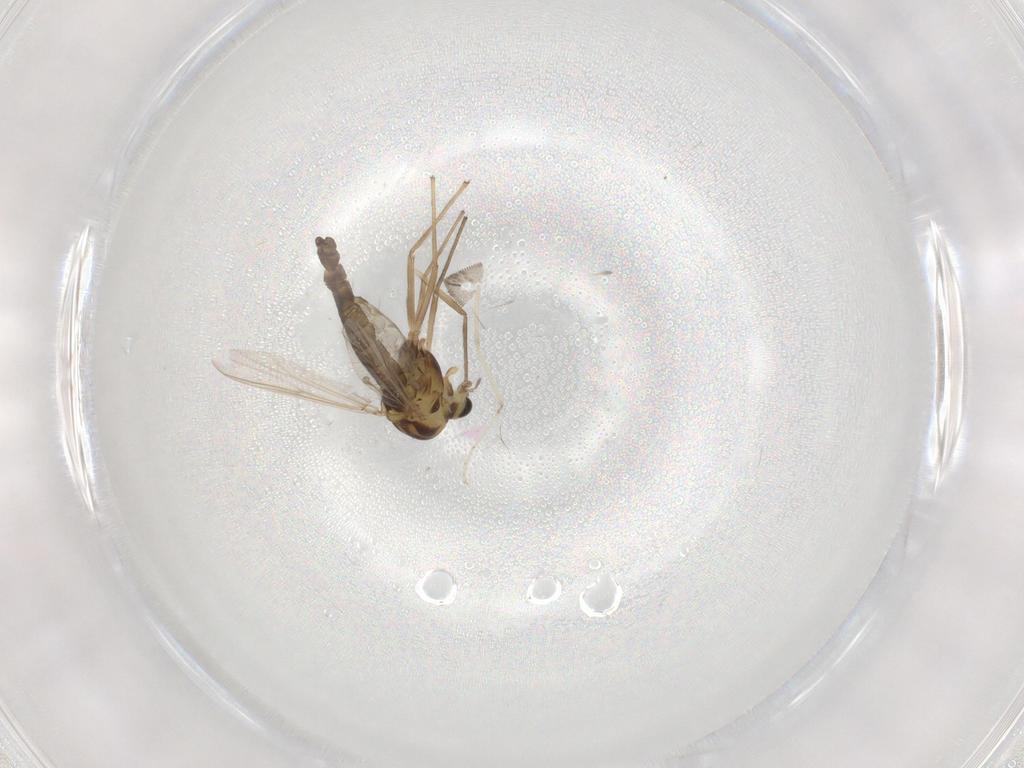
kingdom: Animalia
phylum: Arthropoda
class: Insecta
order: Diptera
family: Chironomidae
